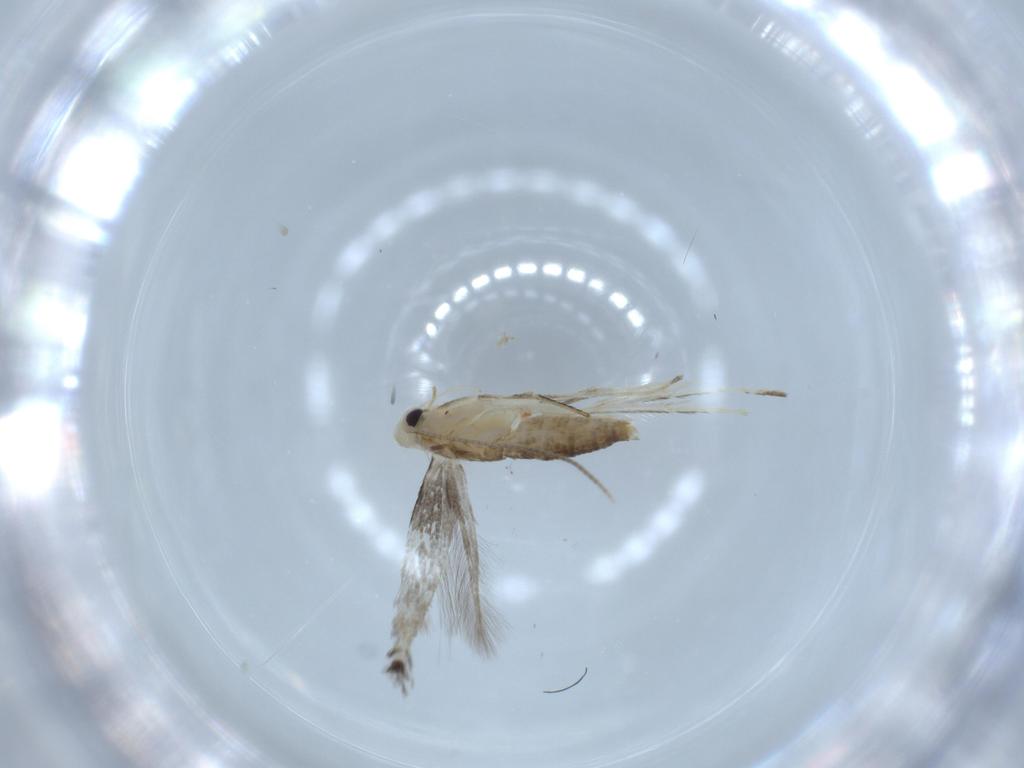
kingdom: Animalia
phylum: Arthropoda
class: Insecta
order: Lepidoptera
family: Gracillariidae
